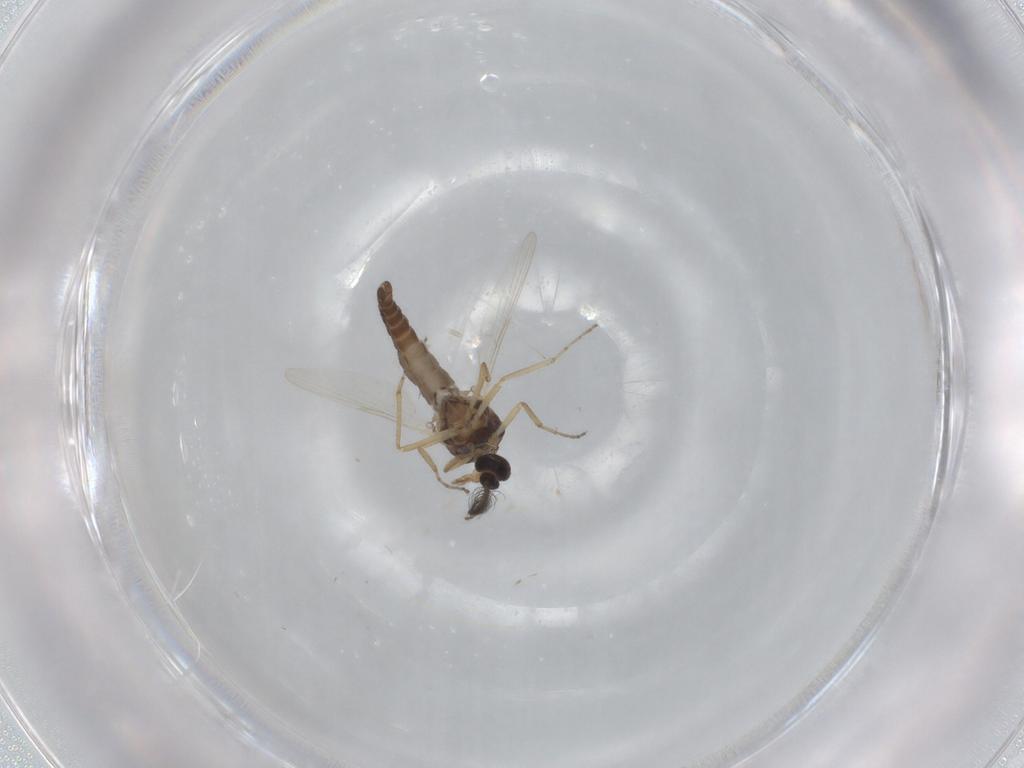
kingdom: Animalia
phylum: Arthropoda
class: Insecta
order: Diptera
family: Ceratopogonidae
